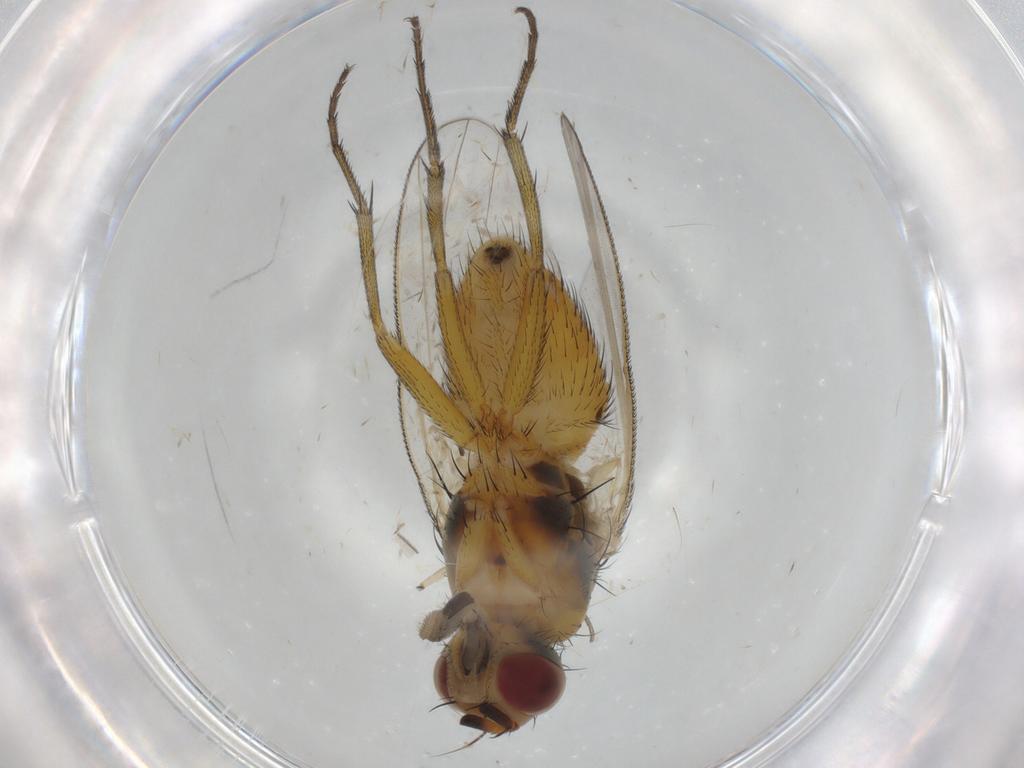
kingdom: Animalia
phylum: Arthropoda
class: Insecta
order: Diptera
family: Muscidae
